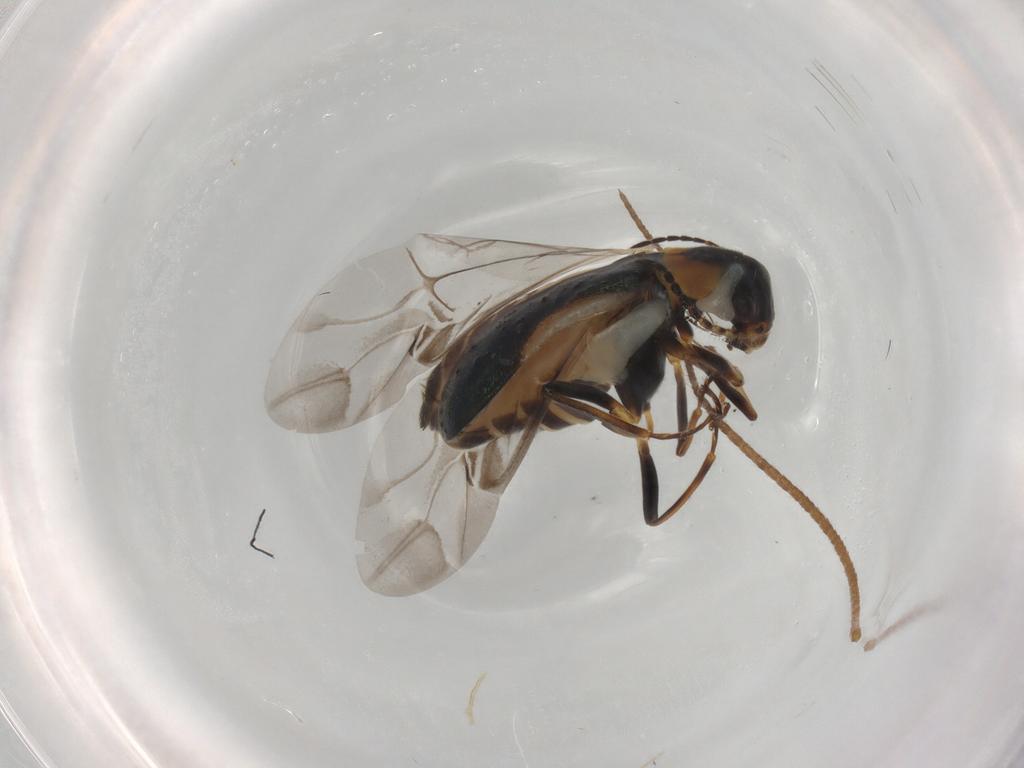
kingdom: Animalia
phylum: Arthropoda
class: Insecta
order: Coleoptera
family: Melyridae
